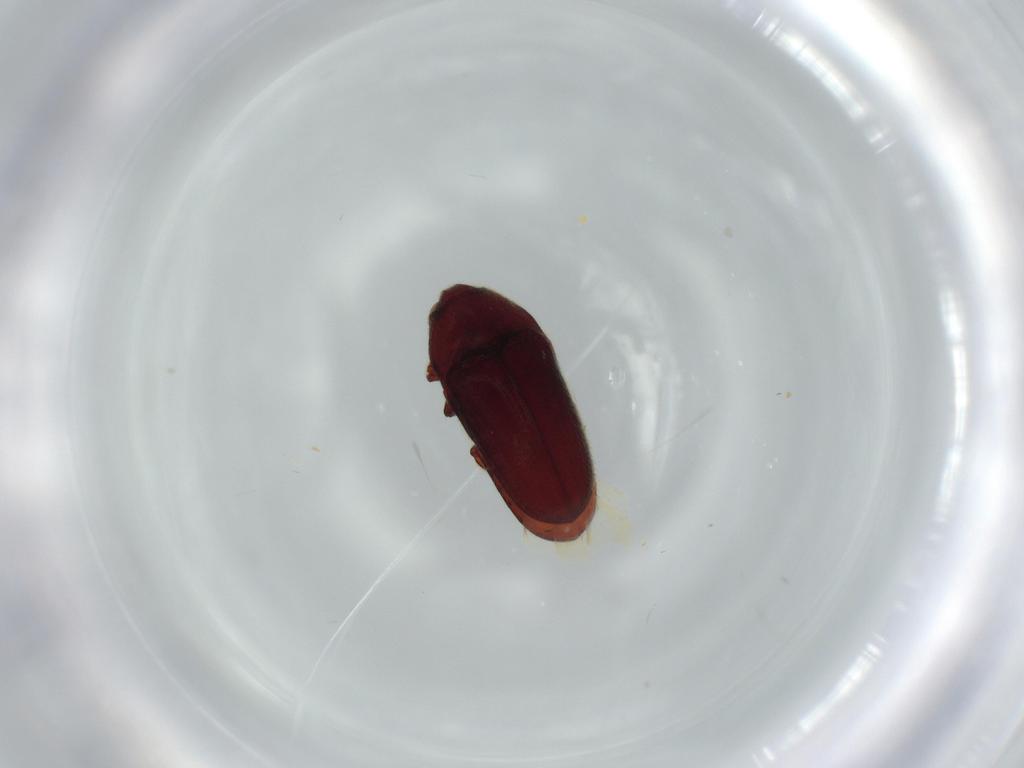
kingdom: Animalia
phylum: Arthropoda
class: Insecta
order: Coleoptera
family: Throscidae
